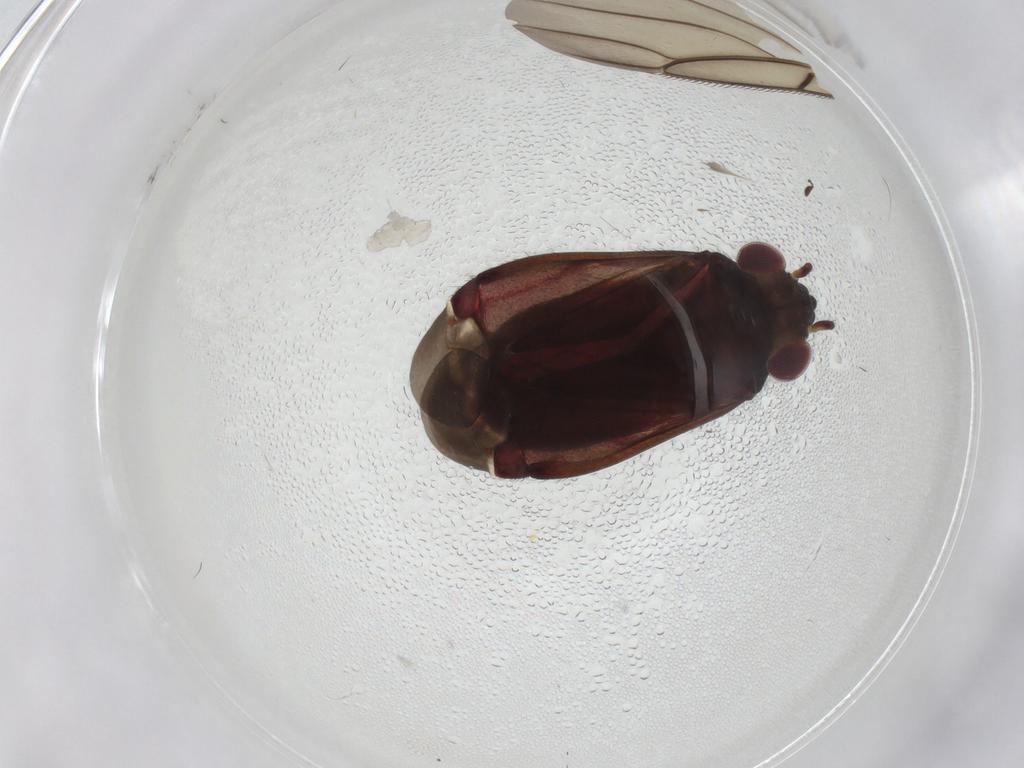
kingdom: Animalia
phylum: Arthropoda
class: Insecta
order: Hemiptera
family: Miridae
